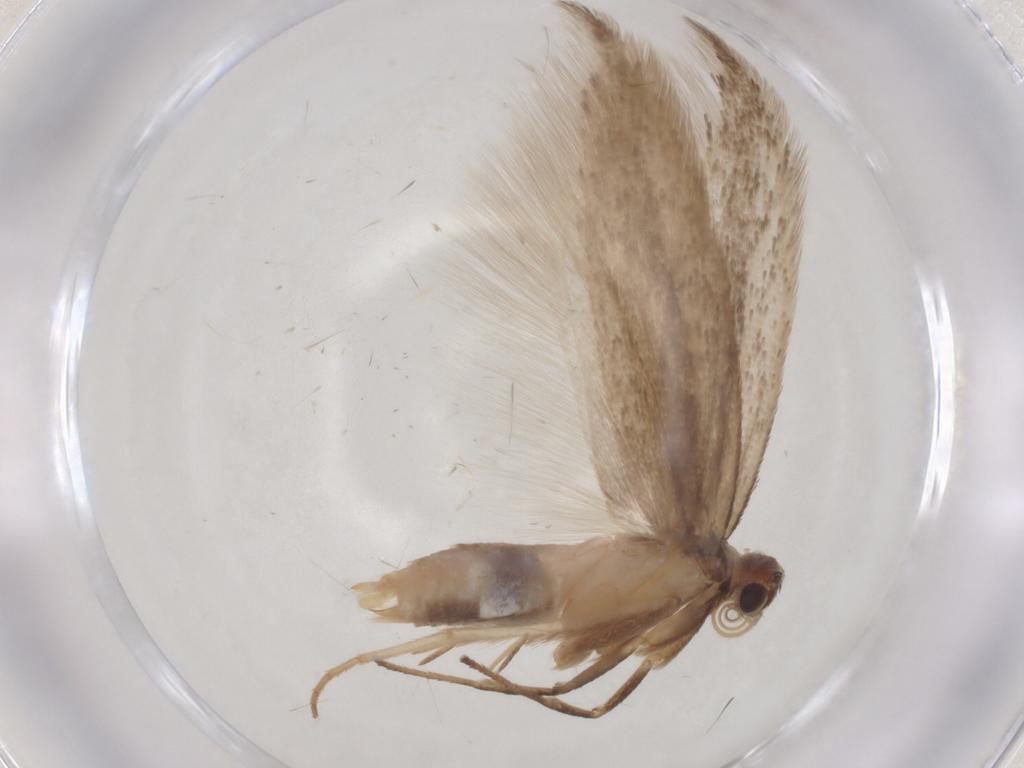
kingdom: Animalia
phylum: Arthropoda
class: Insecta
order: Lepidoptera
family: Gelechiidae
